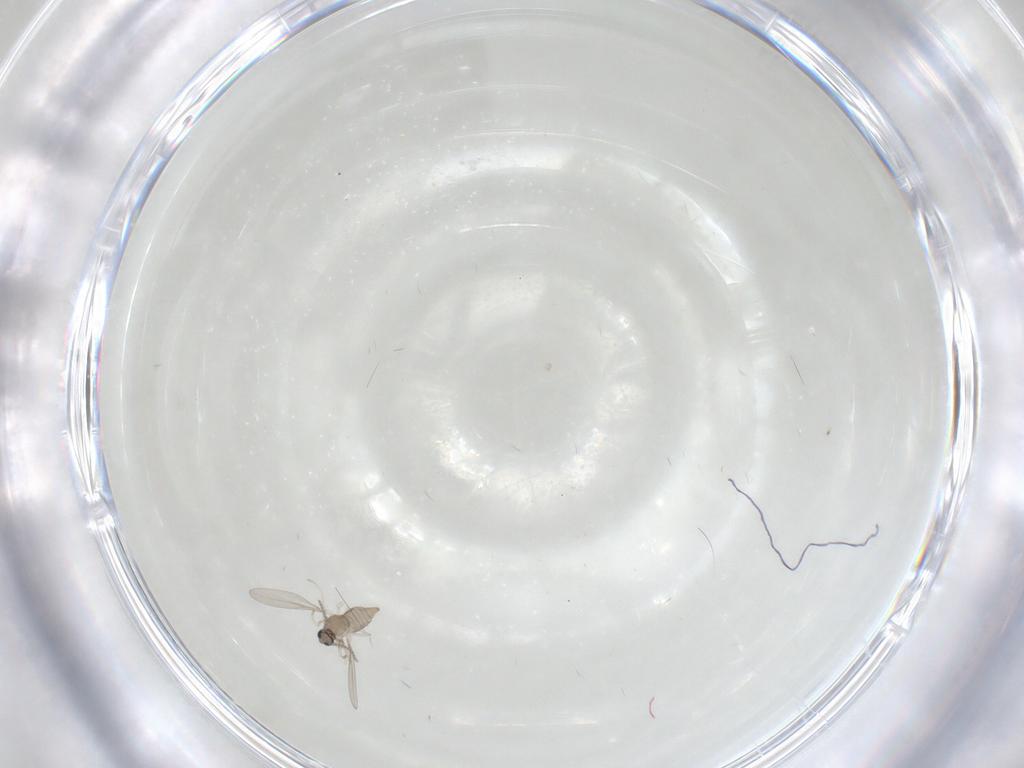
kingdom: Animalia
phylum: Arthropoda
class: Insecta
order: Diptera
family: Cecidomyiidae
